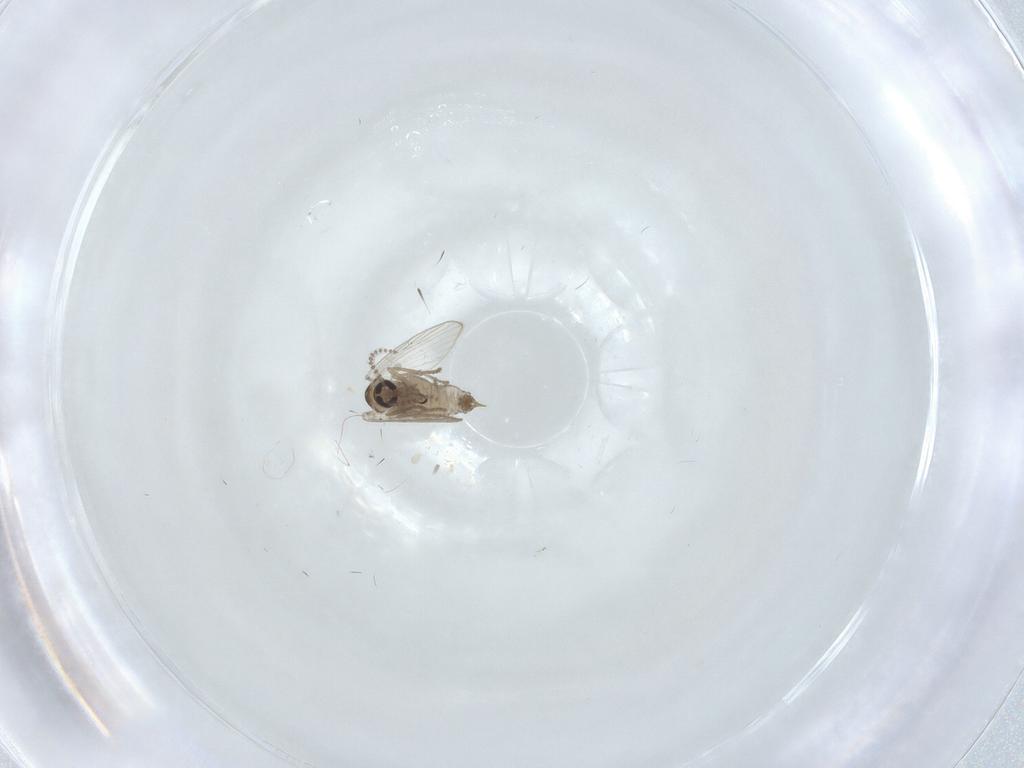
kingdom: Animalia
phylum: Arthropoda
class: Insecta
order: Diptera
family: Psychodidae
